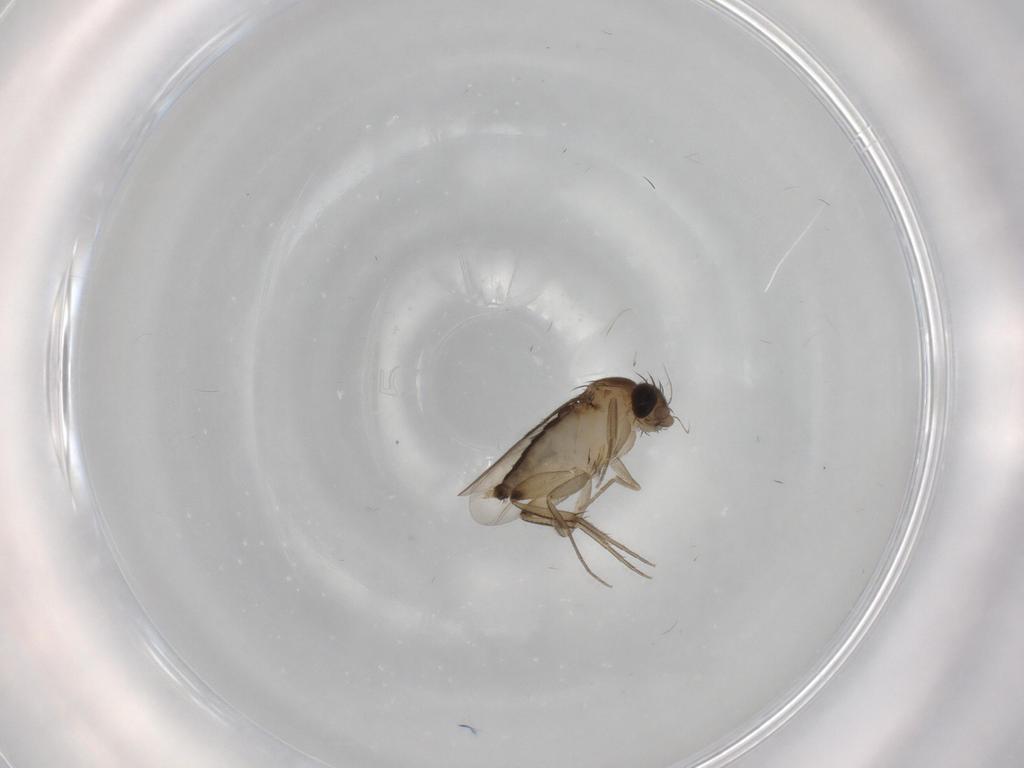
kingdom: Animalia
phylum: Arthropoda
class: Insecta
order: Diptera
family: Phoridae
